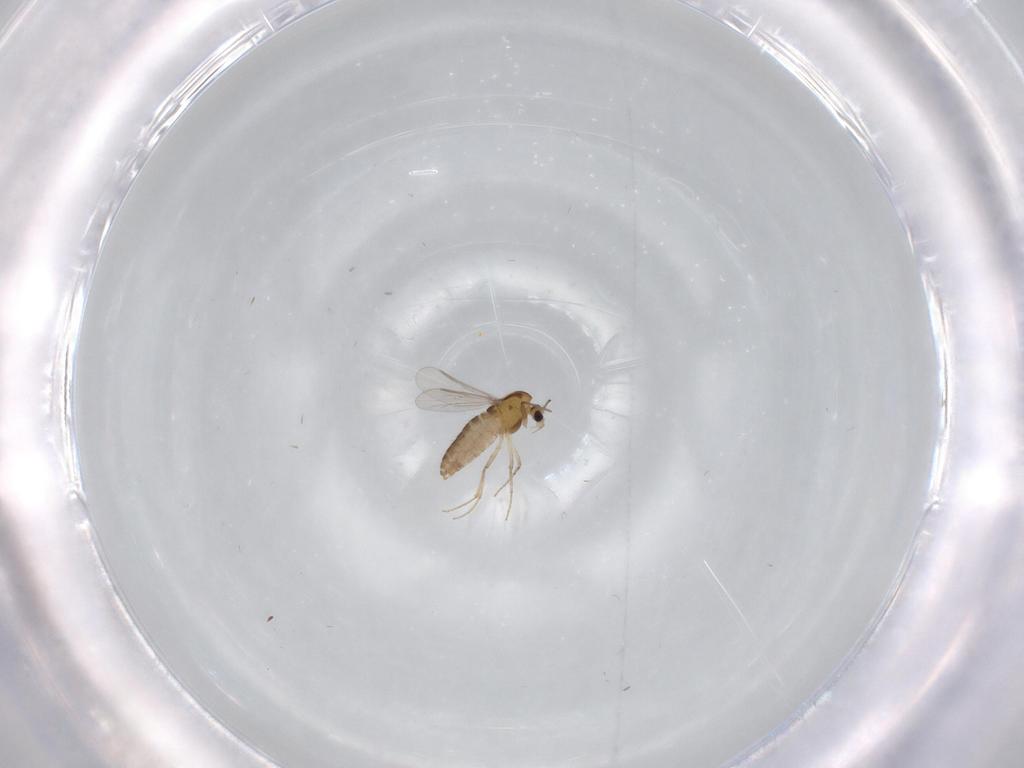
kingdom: Animalia
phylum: Arthropoda
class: Insecta
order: Diptera
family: Cecidomyiidae
